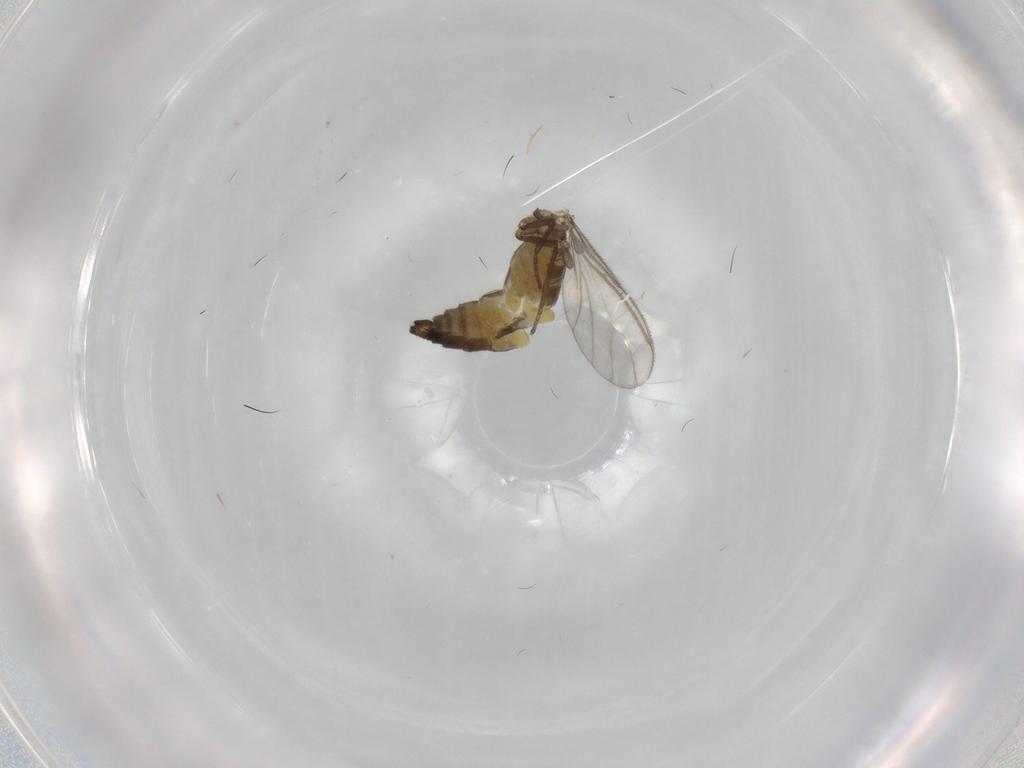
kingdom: Animalia
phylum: Arthropoda
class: Insecta
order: Diptera
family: Sciaridae
